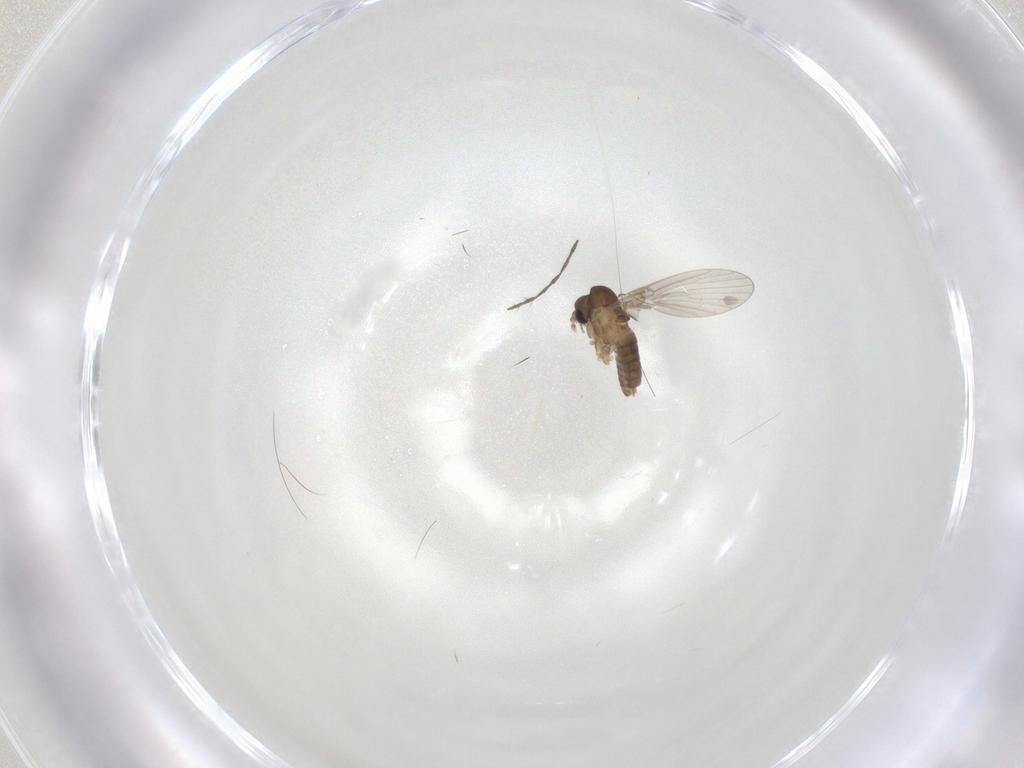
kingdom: Animalia
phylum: Arthropoda
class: Insecta
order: Diptera
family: Limoniidae
